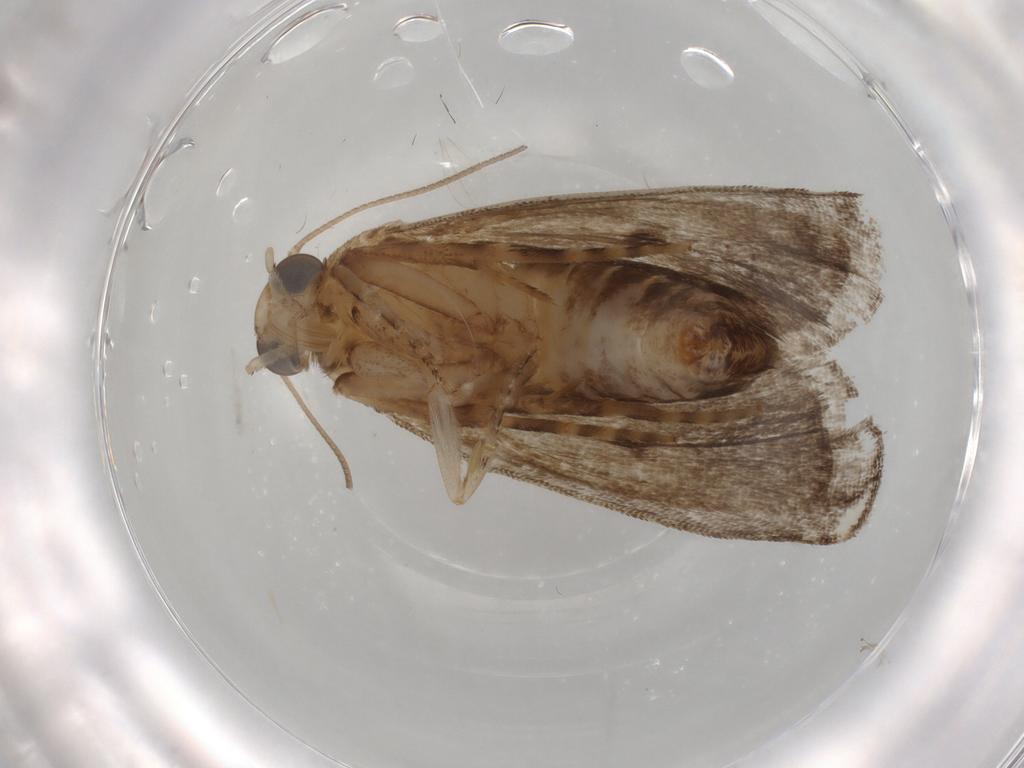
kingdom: Animalia
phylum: Arthropoda
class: Insecta
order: Lepidoptera
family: Immidae
